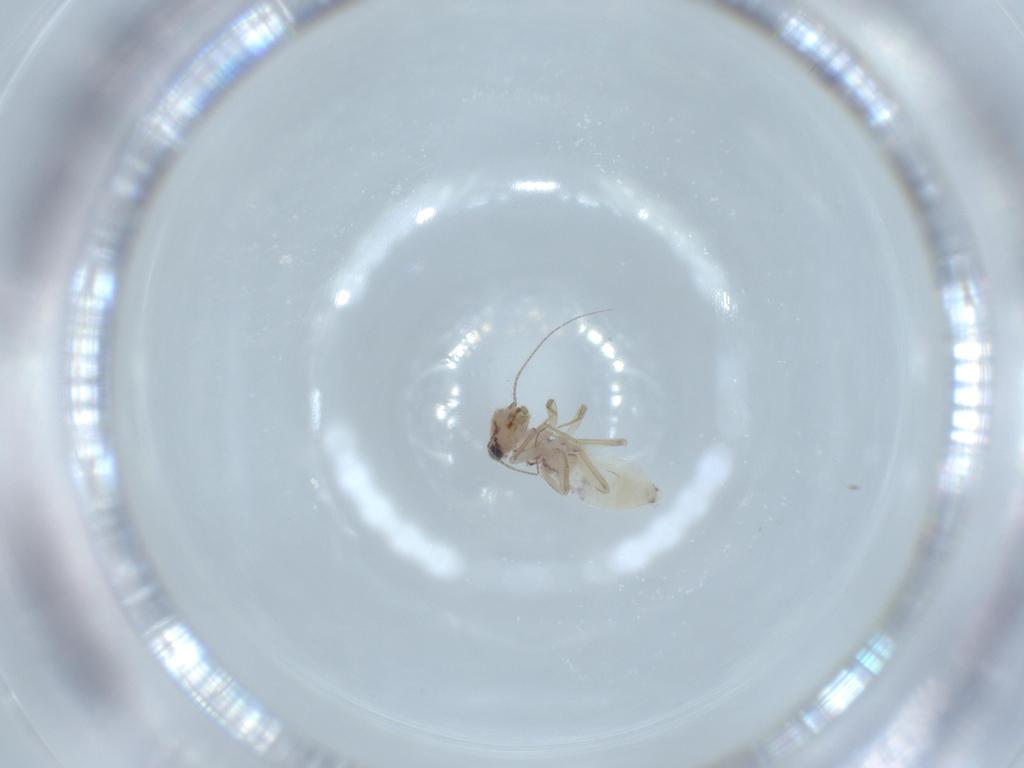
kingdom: Animalia
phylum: Arthropoda
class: Insecta
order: Psocodea
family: Lepidopsocidae
